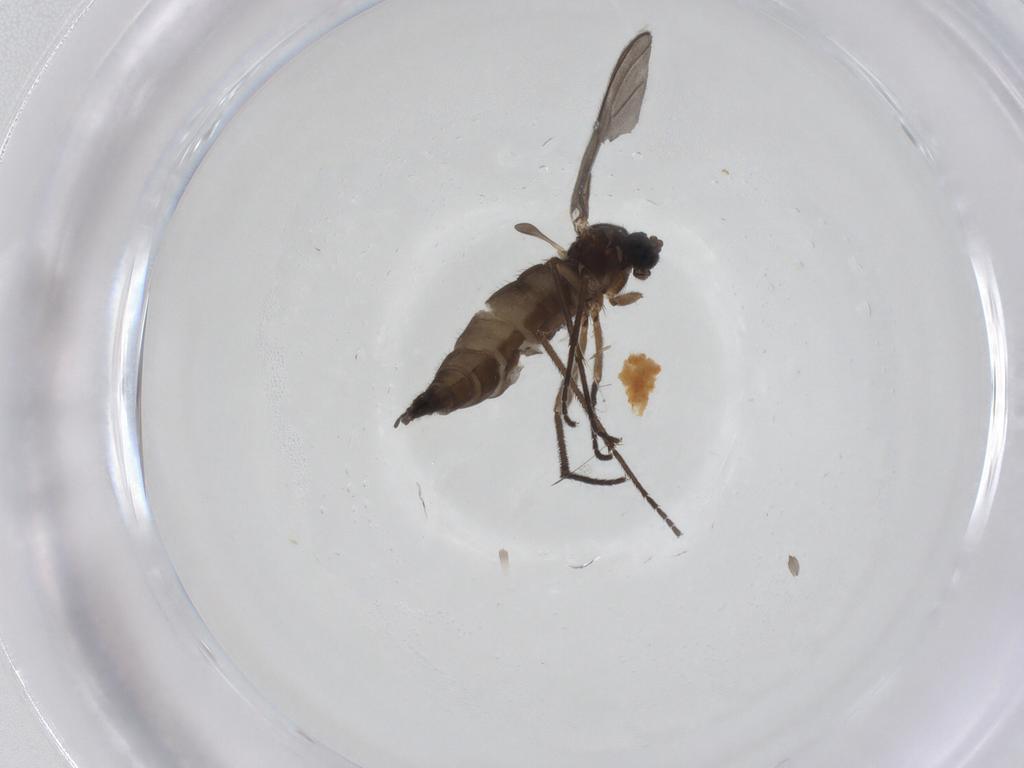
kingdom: Animalia
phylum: Arthropoda
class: Insecta
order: Diptera
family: Sciaridae
